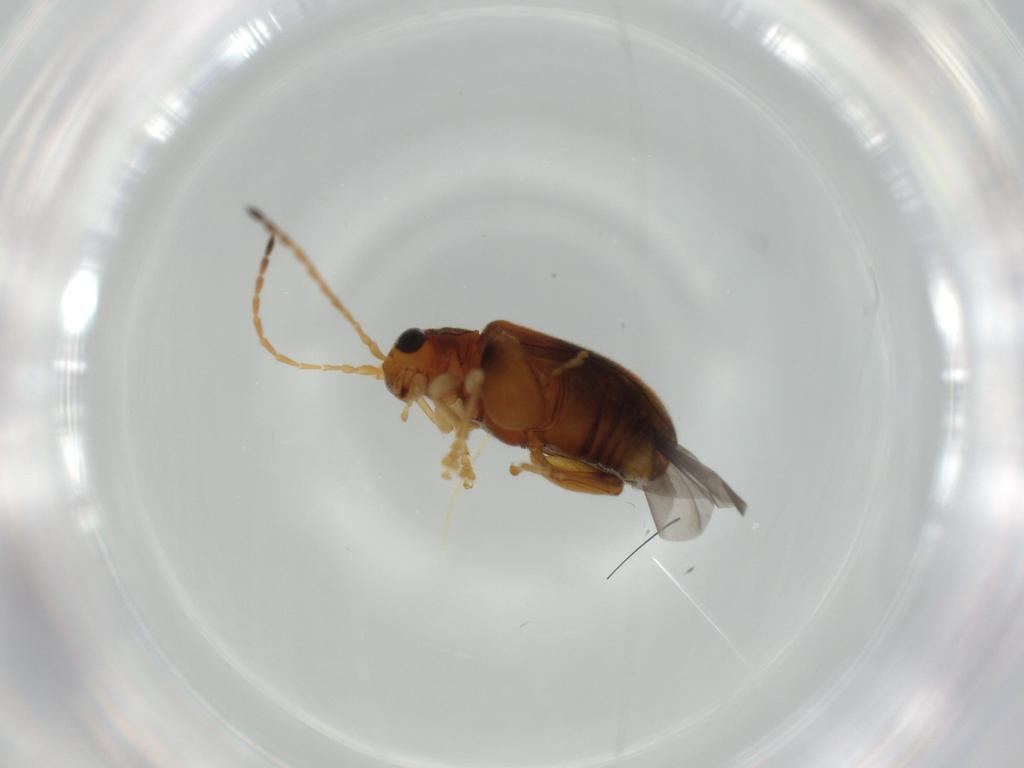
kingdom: Animalia
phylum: Arthropoda
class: Insecta
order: Coleoptera
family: Chrysomelidae
